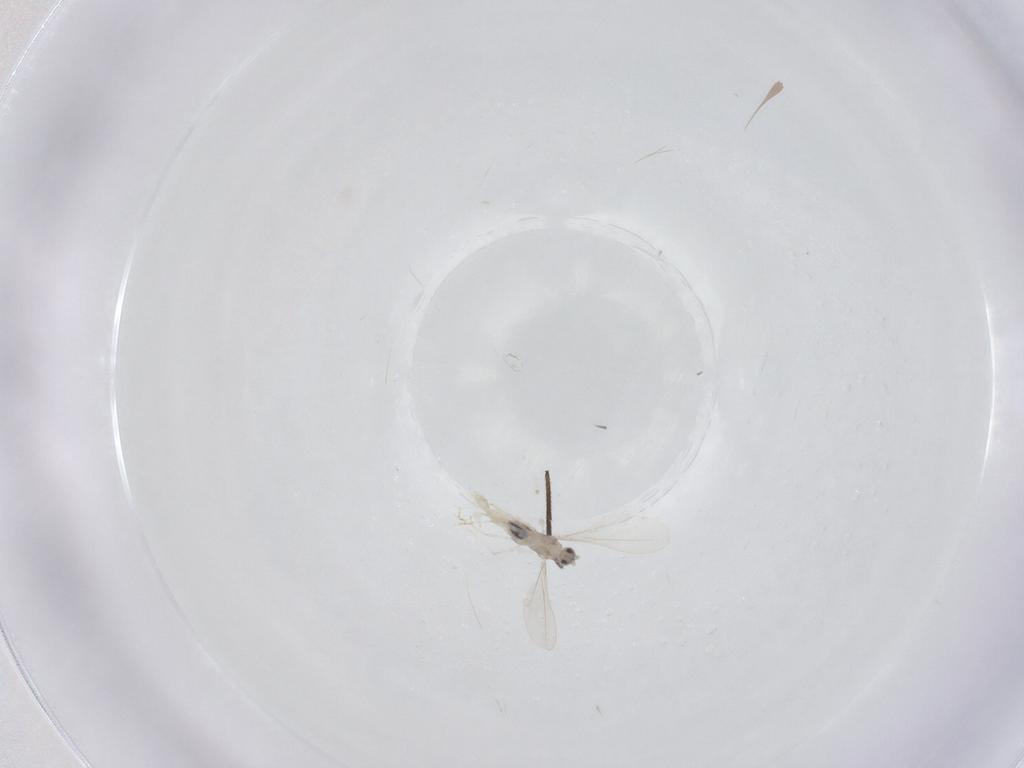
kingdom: Animalia
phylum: Arthropoda
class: Insecta
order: Diptera
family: Sciaridae
